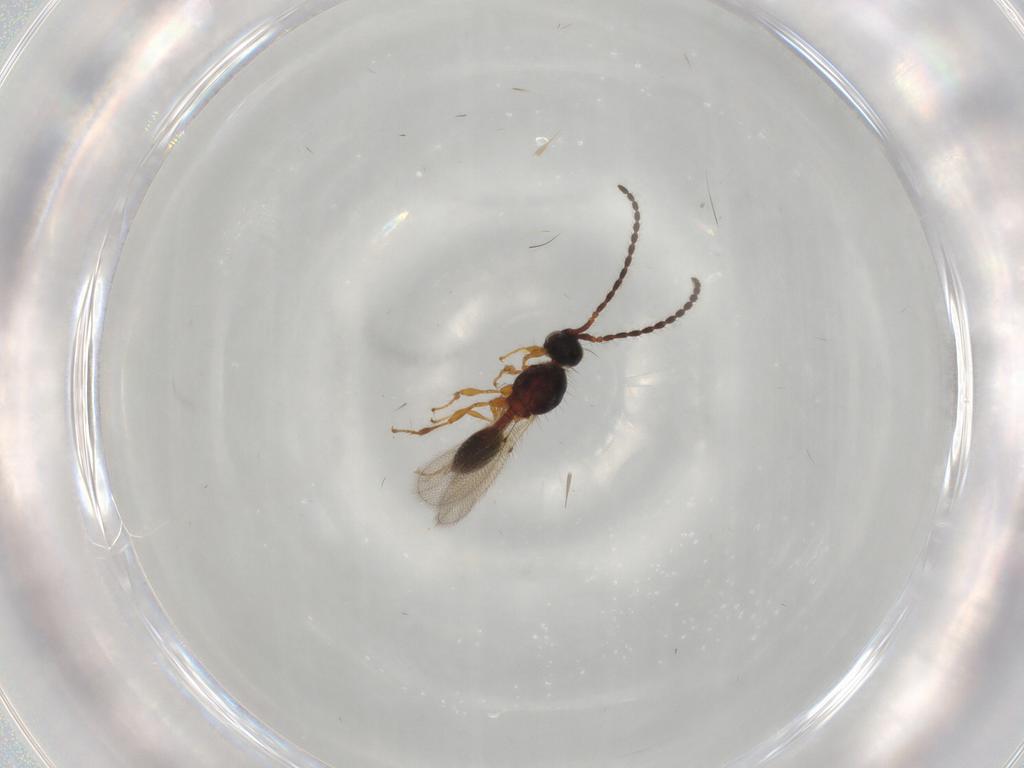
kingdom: Animalia
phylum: Arthropoda
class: Insecta
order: Hymenoptera
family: Diapriidae
